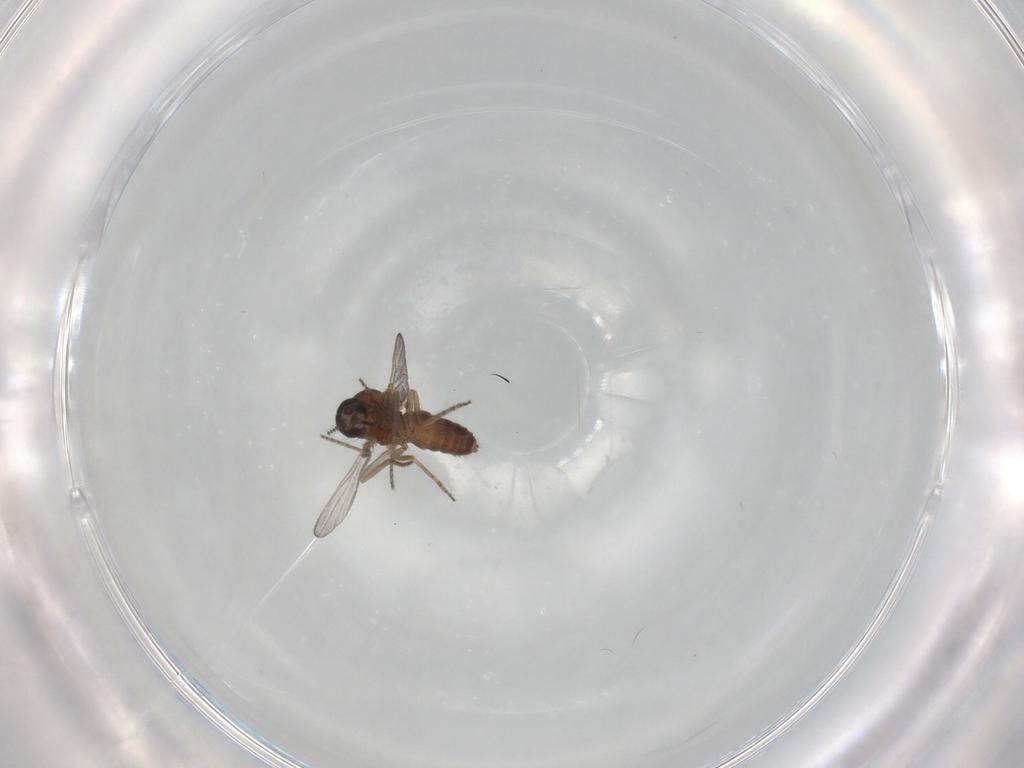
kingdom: Animalia
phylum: Arthropoda
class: Insecta
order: Diptera
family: Ceratopogonidae
